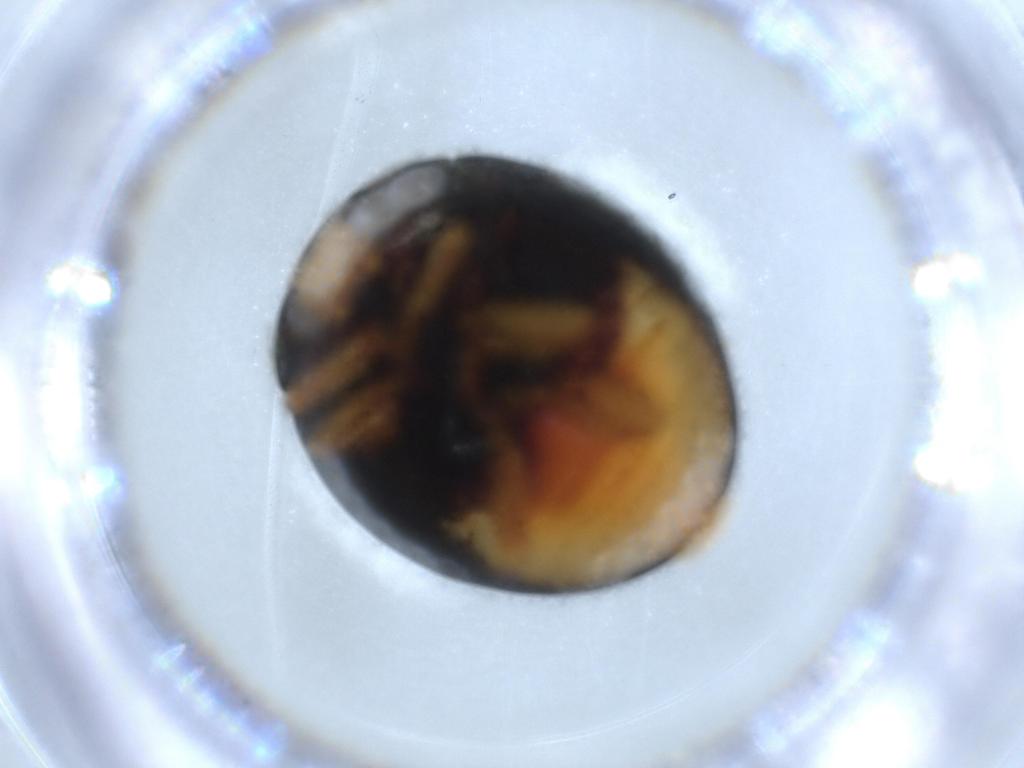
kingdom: Animalia
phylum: Arthropoda
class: Insecta
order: Coleoptera
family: Coccinellidae
